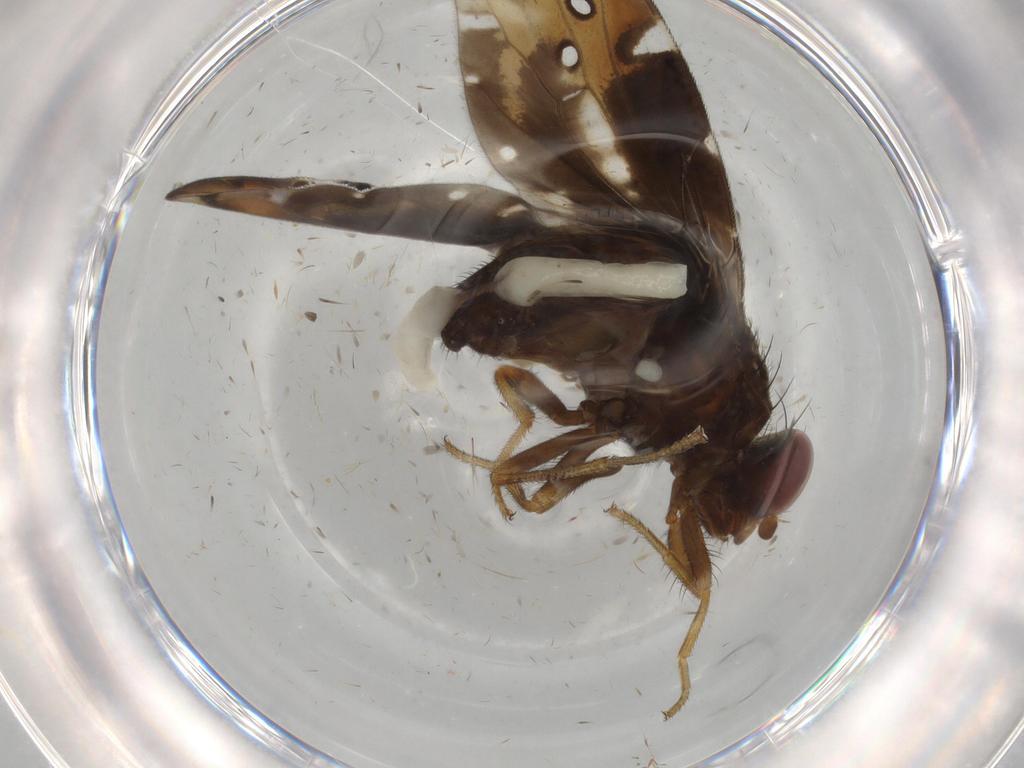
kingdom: Animalia
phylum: Arthropoda
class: Insecta
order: Diptera
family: Ulidiidae
